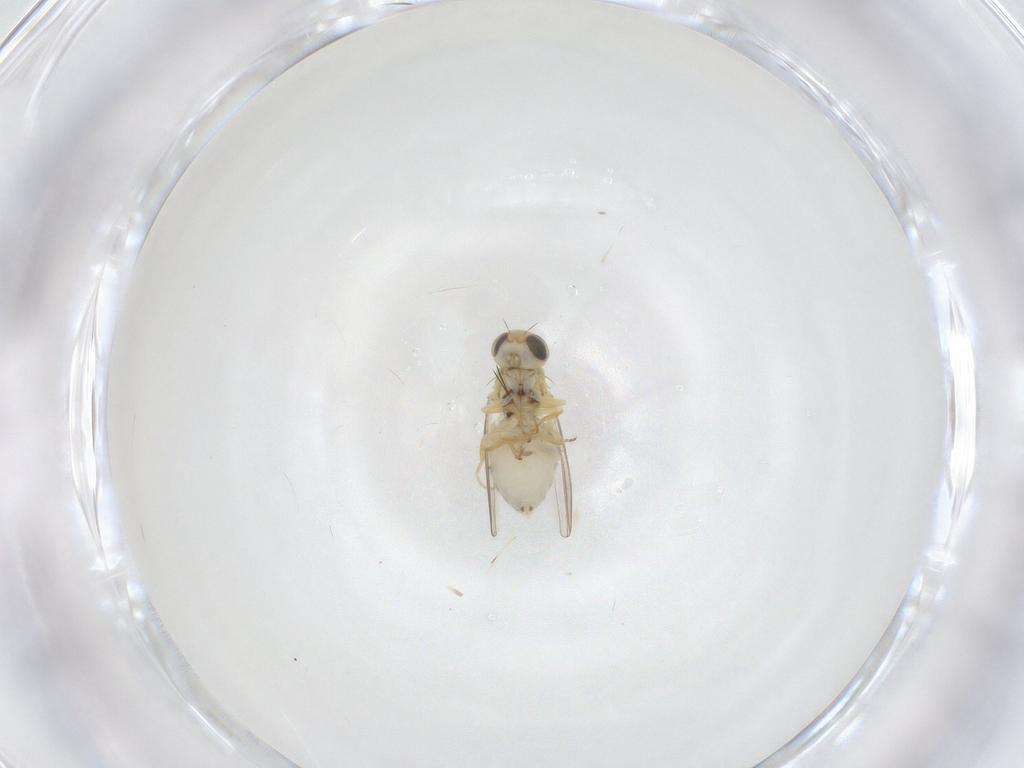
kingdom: Animalia
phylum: Arthropoda
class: Insecta
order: Diptera
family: Chyromyidae
